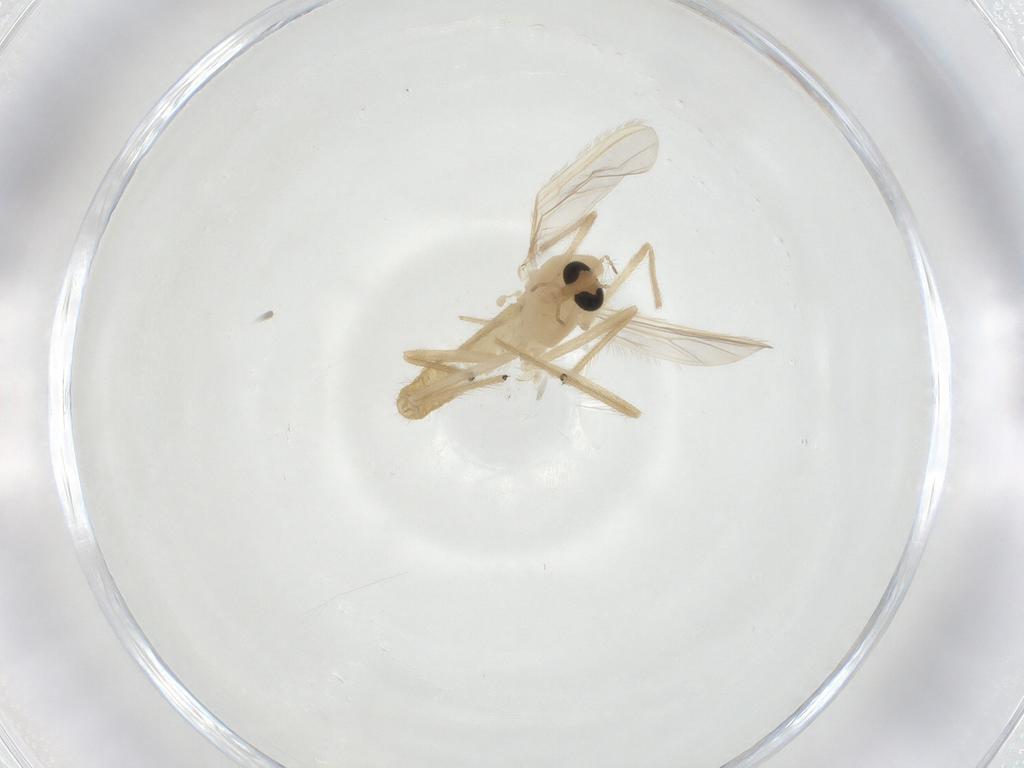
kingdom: Animalia
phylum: Arthropoda
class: Insecta
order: Diptera
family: Chironomidae
